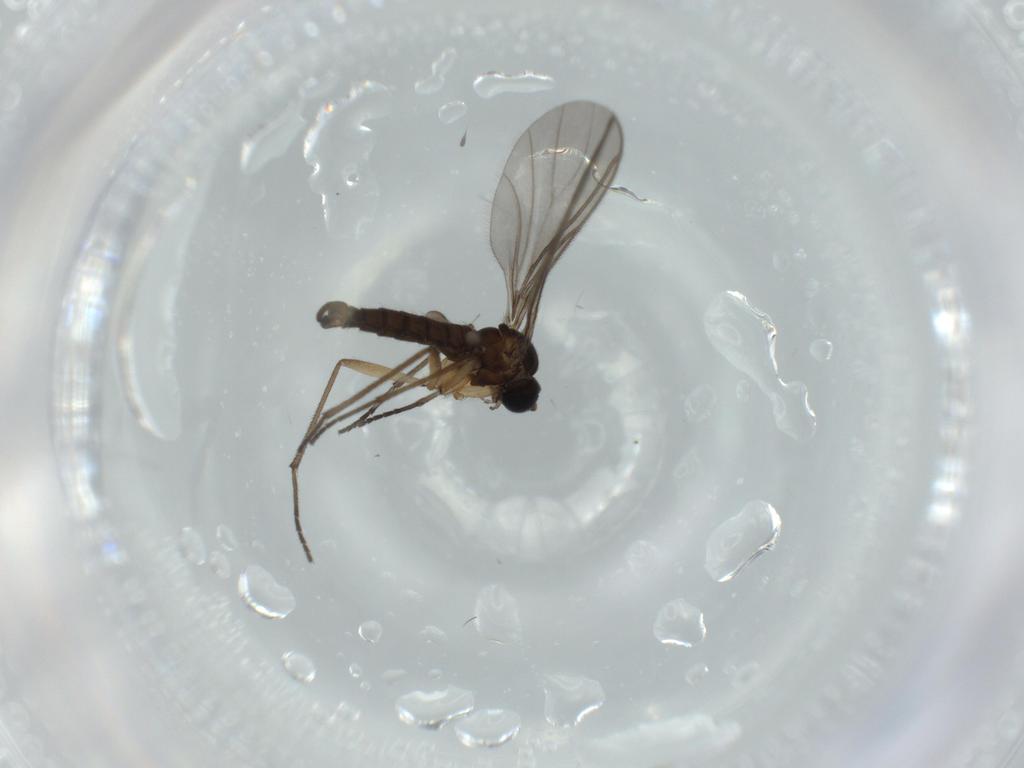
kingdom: Animalia
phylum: Arthropoda
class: Insecta
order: Diptera
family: Sciaridae
